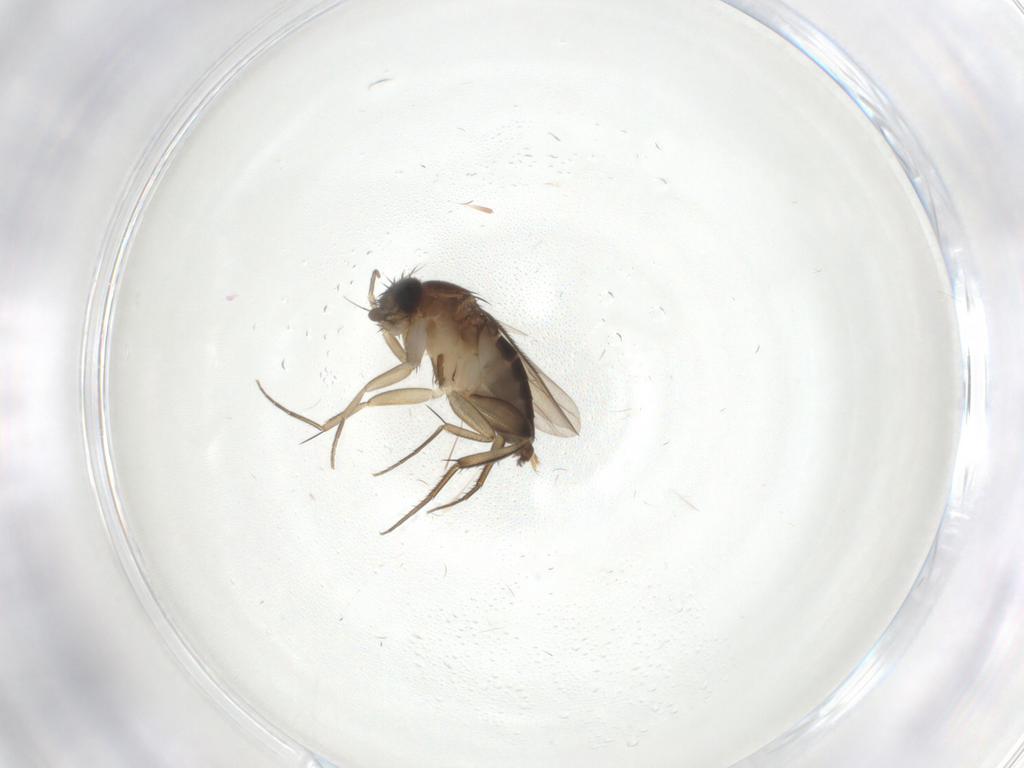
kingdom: Animalia
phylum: Arthropoda
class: Insecta
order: Diptera
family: Phoridae
